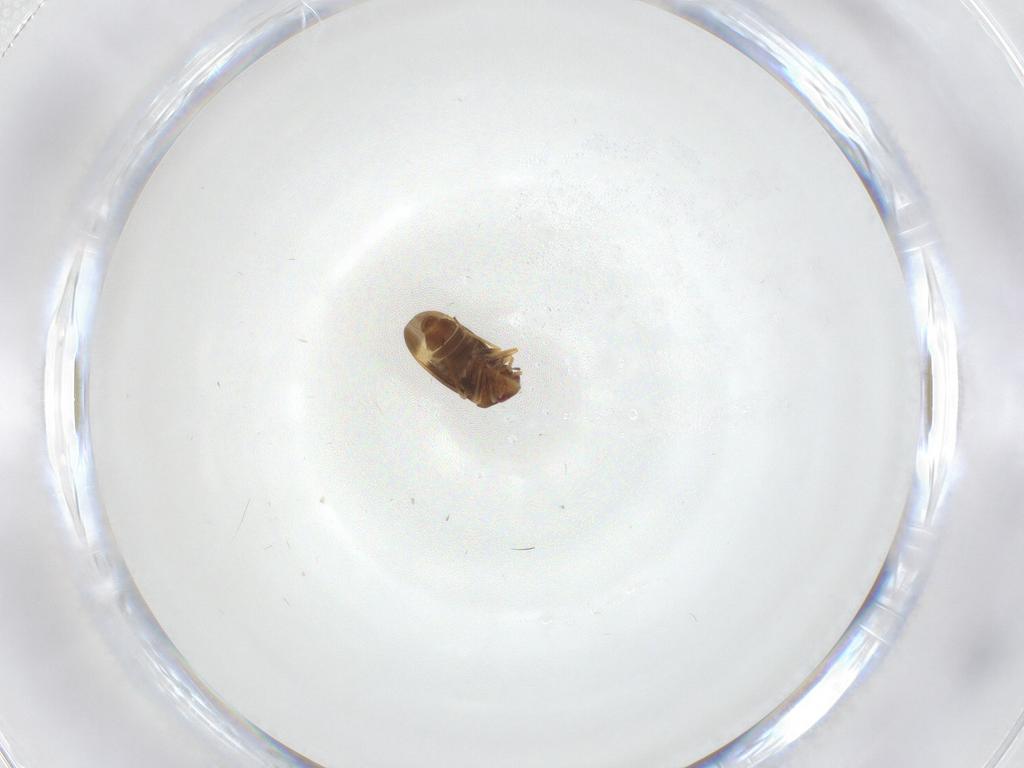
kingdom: Animalia
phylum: Arthropoda
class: Insecta
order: Hemiptera
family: Schizopteridae
